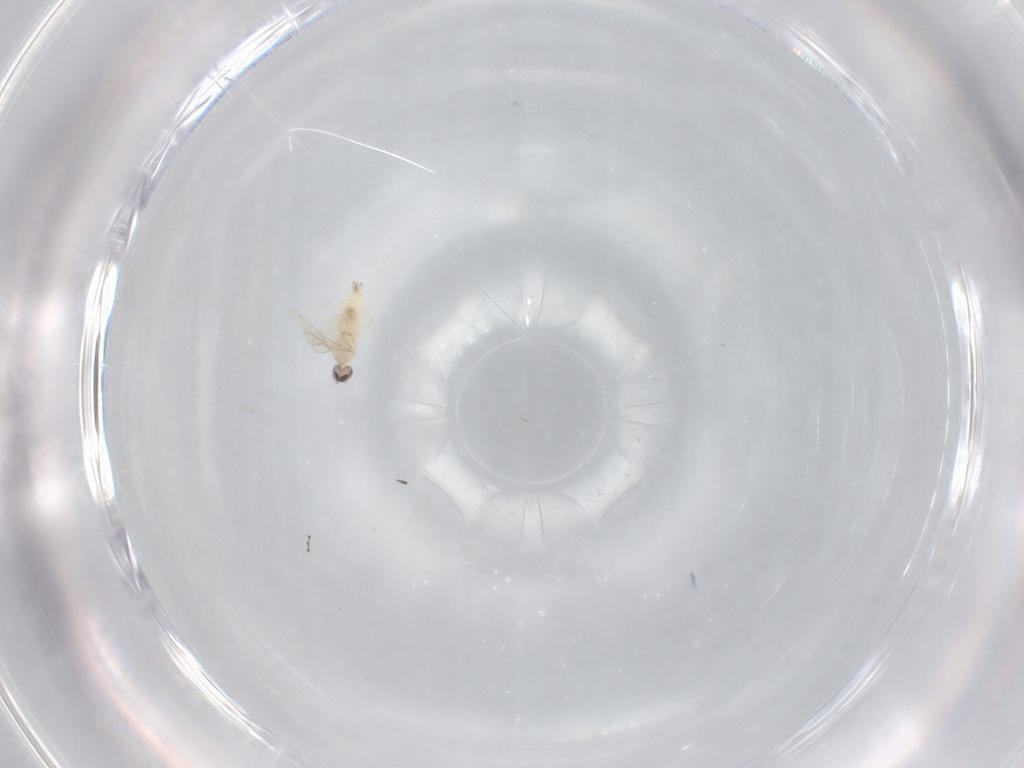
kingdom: Animalia
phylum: Arthropoda
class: Insecta
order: Diptera
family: Cecidomyiidae
